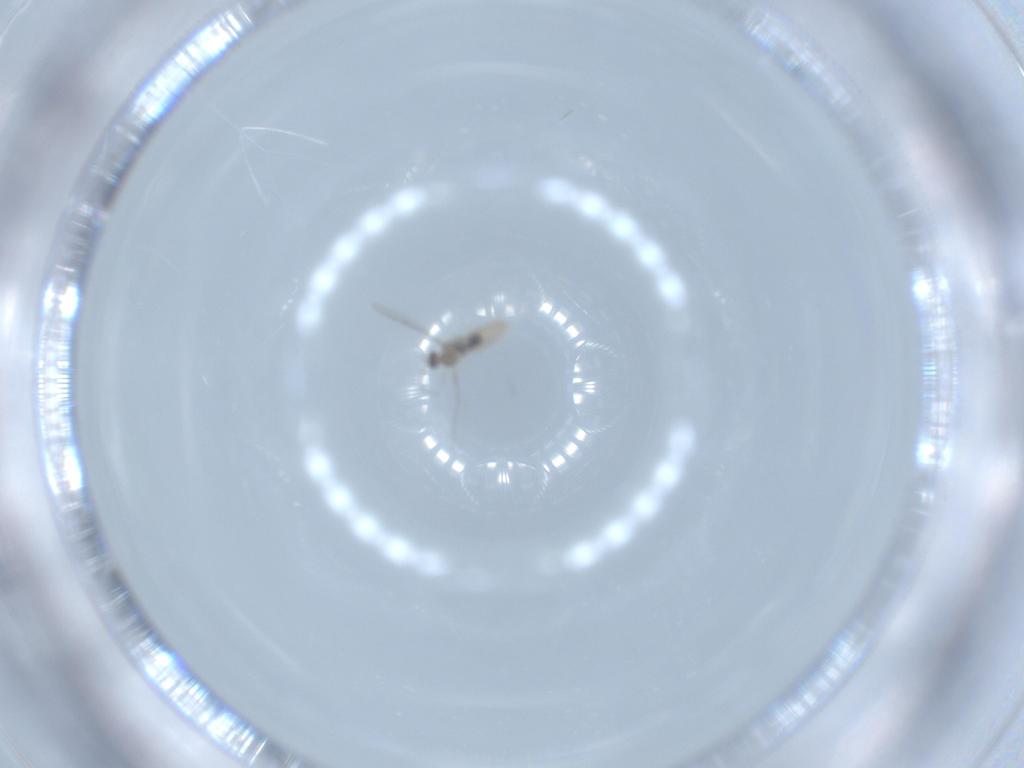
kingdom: Animalia
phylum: Arthropoda
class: Insecta
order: Diptera
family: Cecidomyiidae
